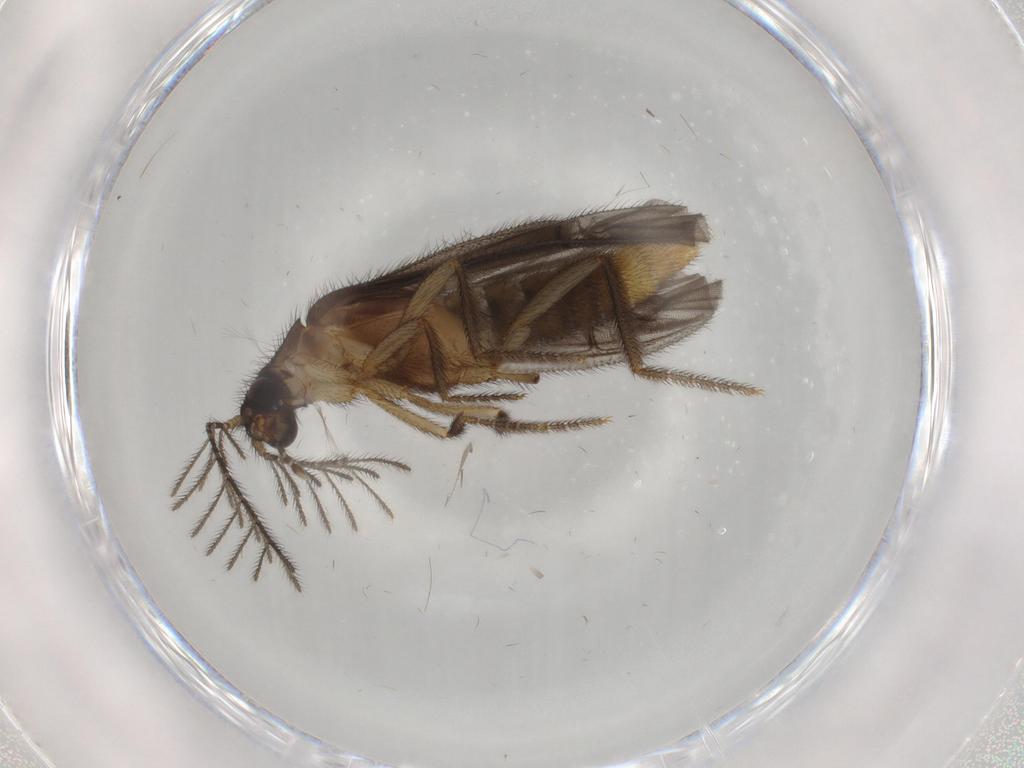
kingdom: Animalia
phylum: Arthropoda
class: Insecta
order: Coleoptera
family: Phengodidae
